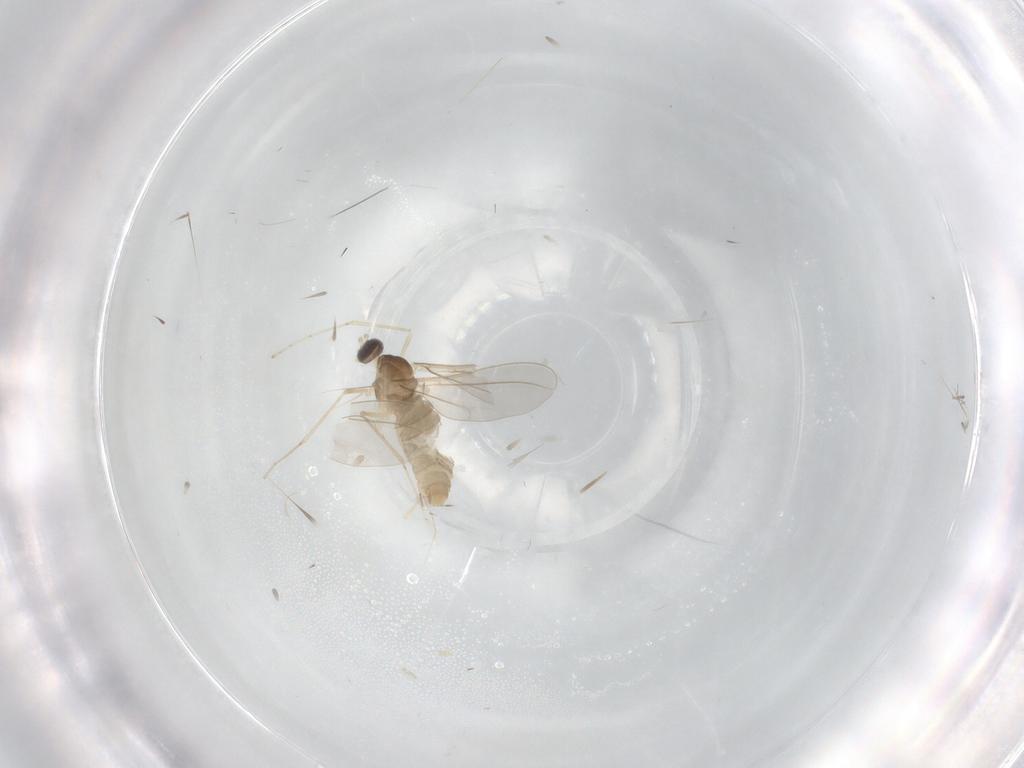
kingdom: Animalia
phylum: Arthropoda
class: Insecta
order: Diptera
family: Cecidomyiidae
